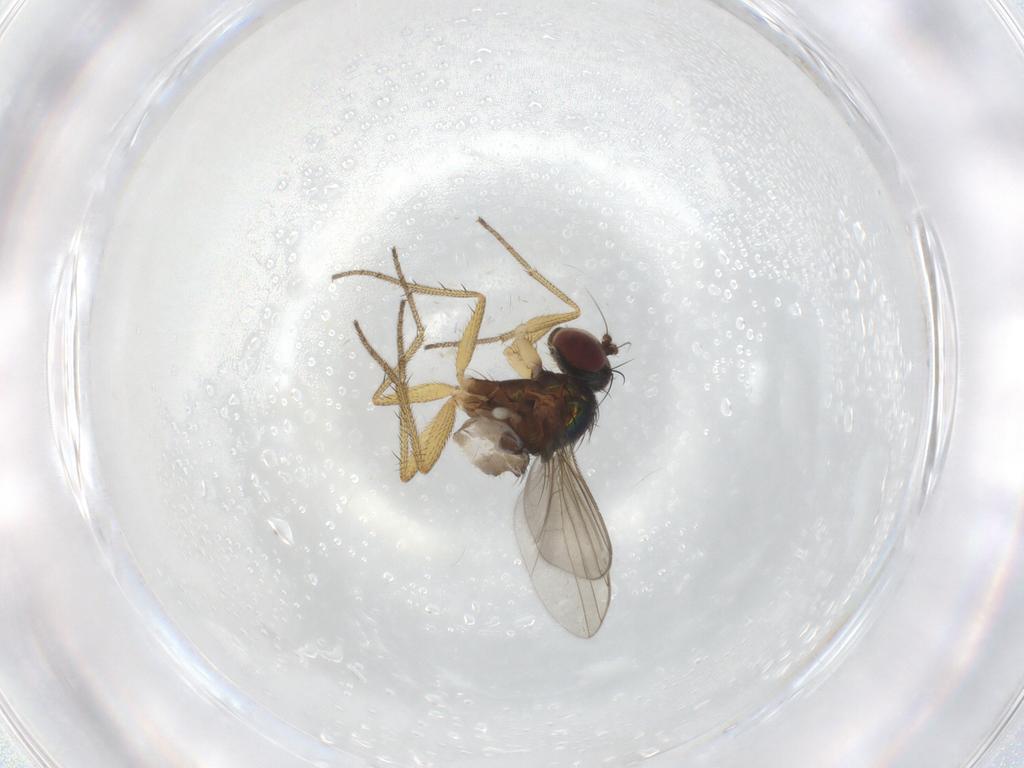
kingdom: Animalia
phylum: Arthropoda
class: Insecta
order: Diptera
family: Dolichopodidae
